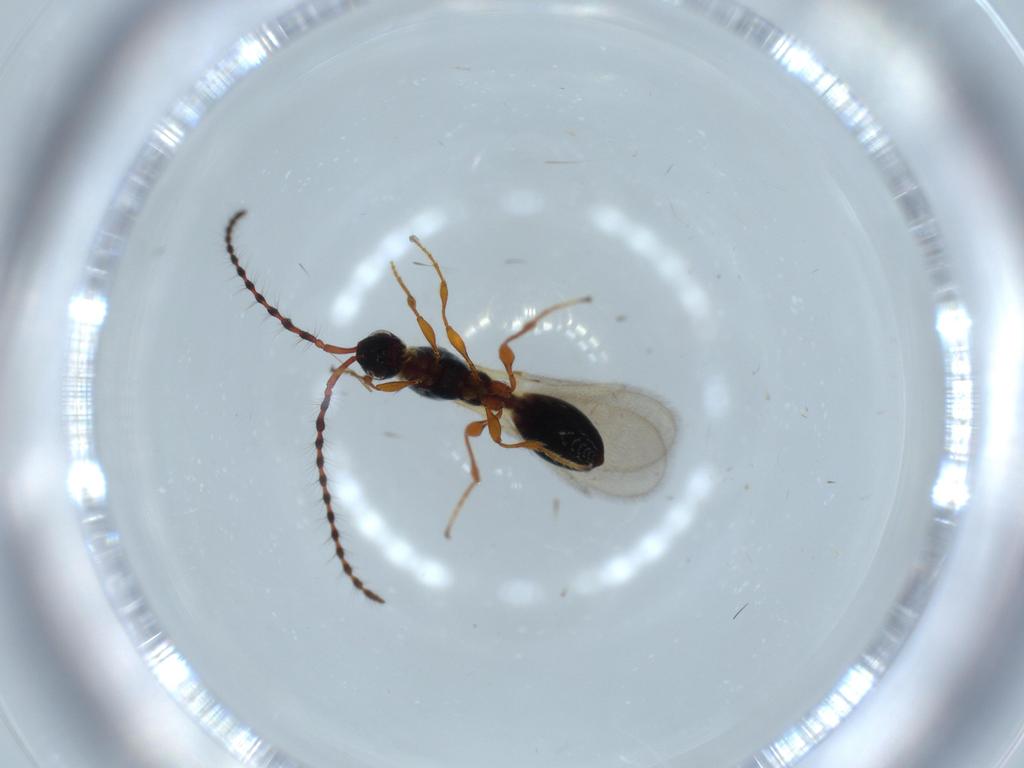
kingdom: Animalia
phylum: Arthropoda
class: Insecta
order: Hymenoptera
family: Diapriidae
